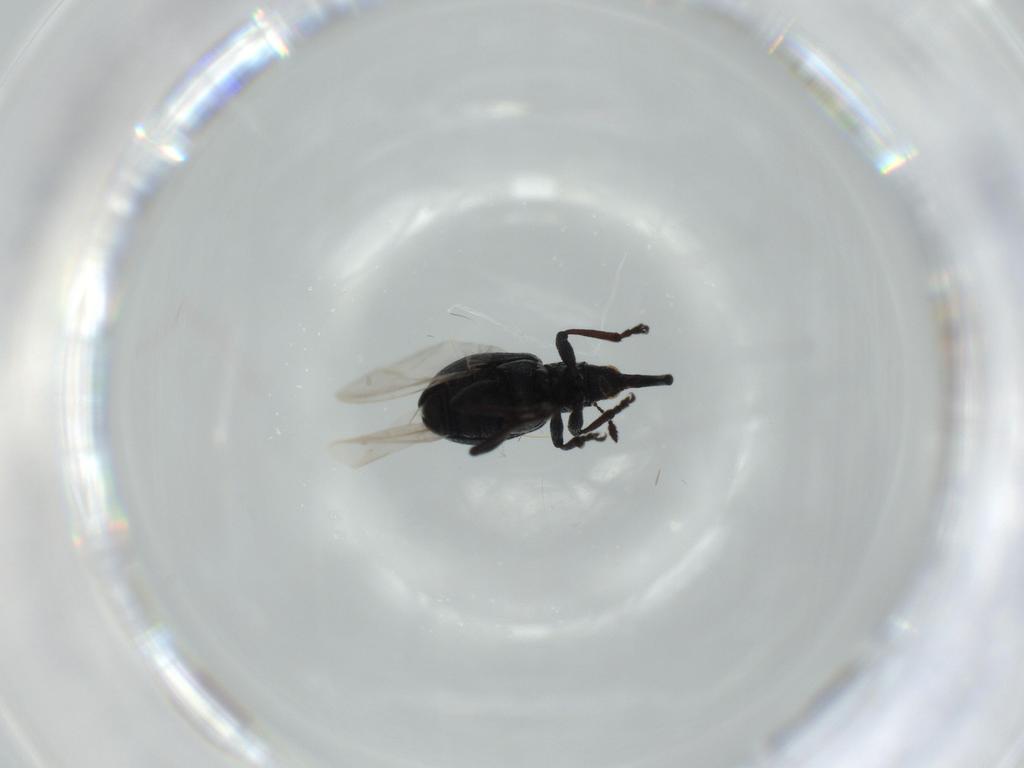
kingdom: Animalia
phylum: Arthropoda
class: Insecta
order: Coleoptera
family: Brentidae
